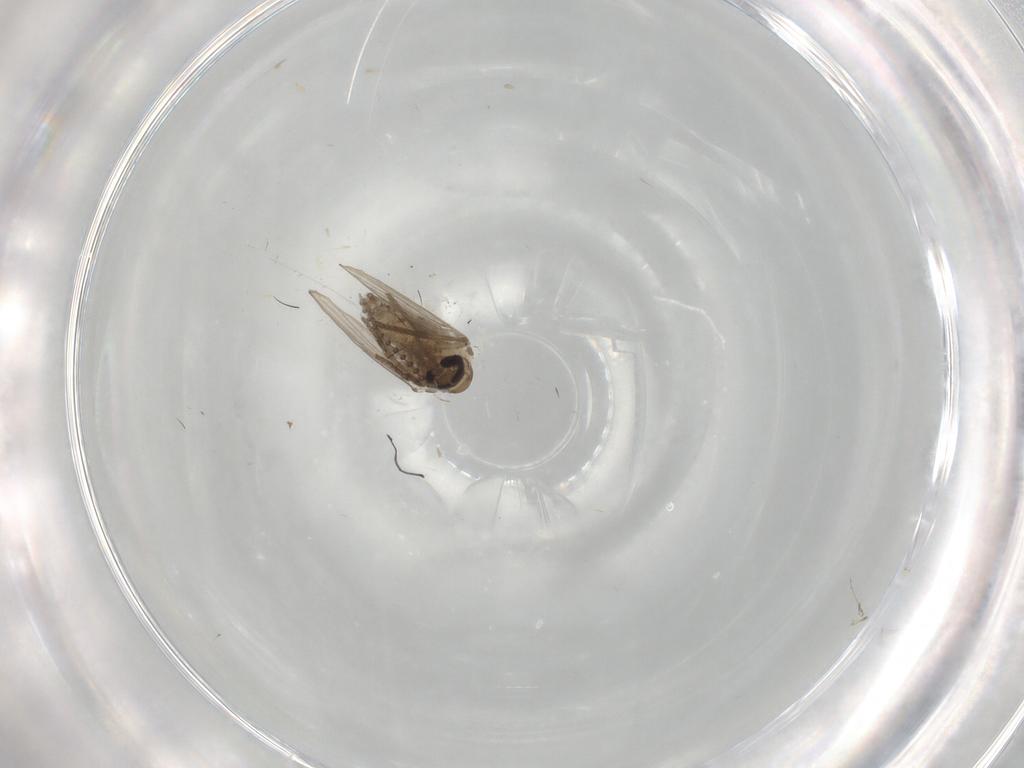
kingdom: Animalia
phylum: Arthropoda
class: Insecta
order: Diptera
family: Psychodidae
